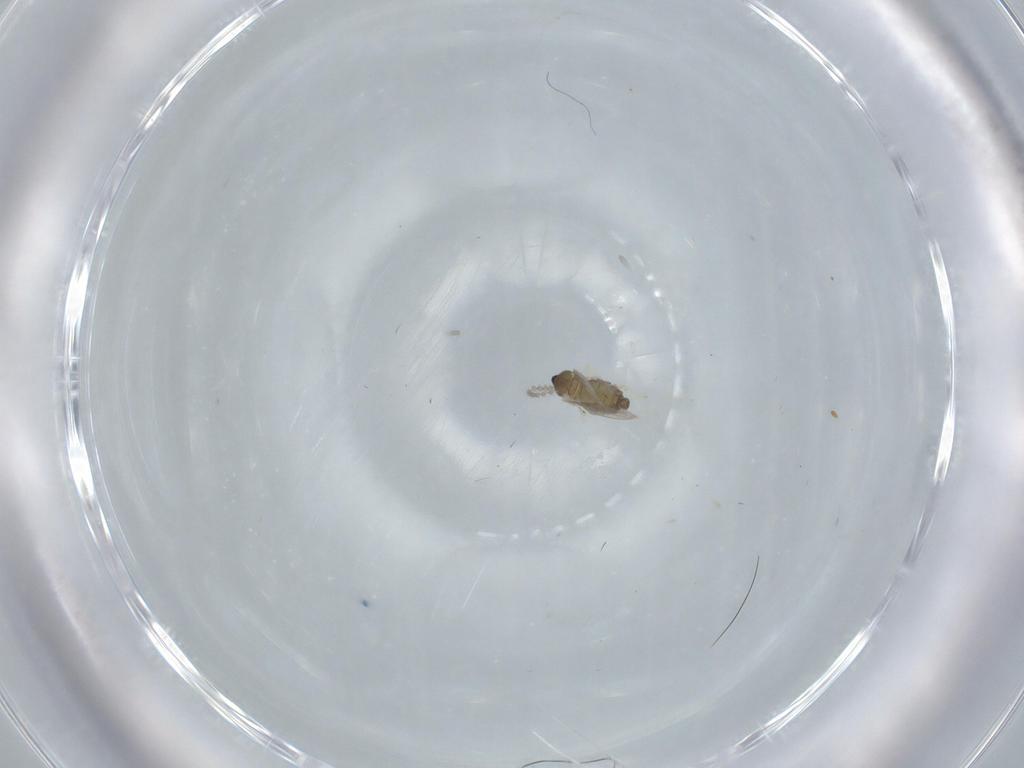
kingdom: Animalia
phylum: Arthropoda
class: Insecta
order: Diptera
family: Cecidomyiidae
